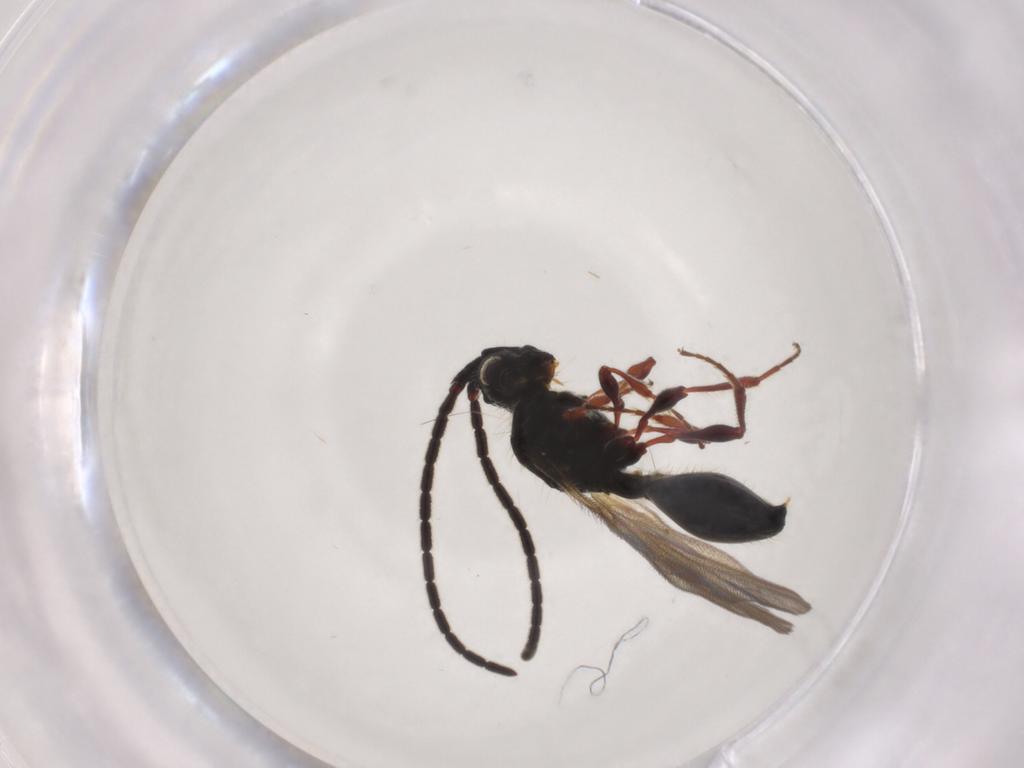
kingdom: Animalia
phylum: Arthropoda
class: Insecta
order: Hymenoptera
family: Diapriidae
